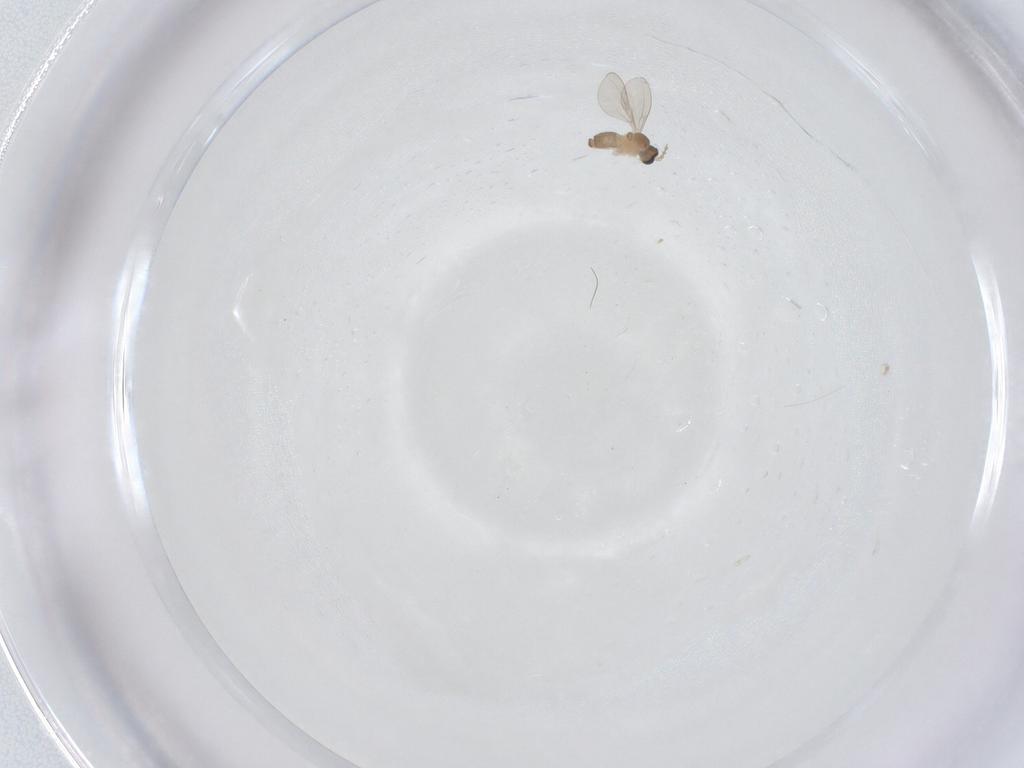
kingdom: Animalia
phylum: Arthropoda
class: Insecta
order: Diptera
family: Cecidomyiidae
